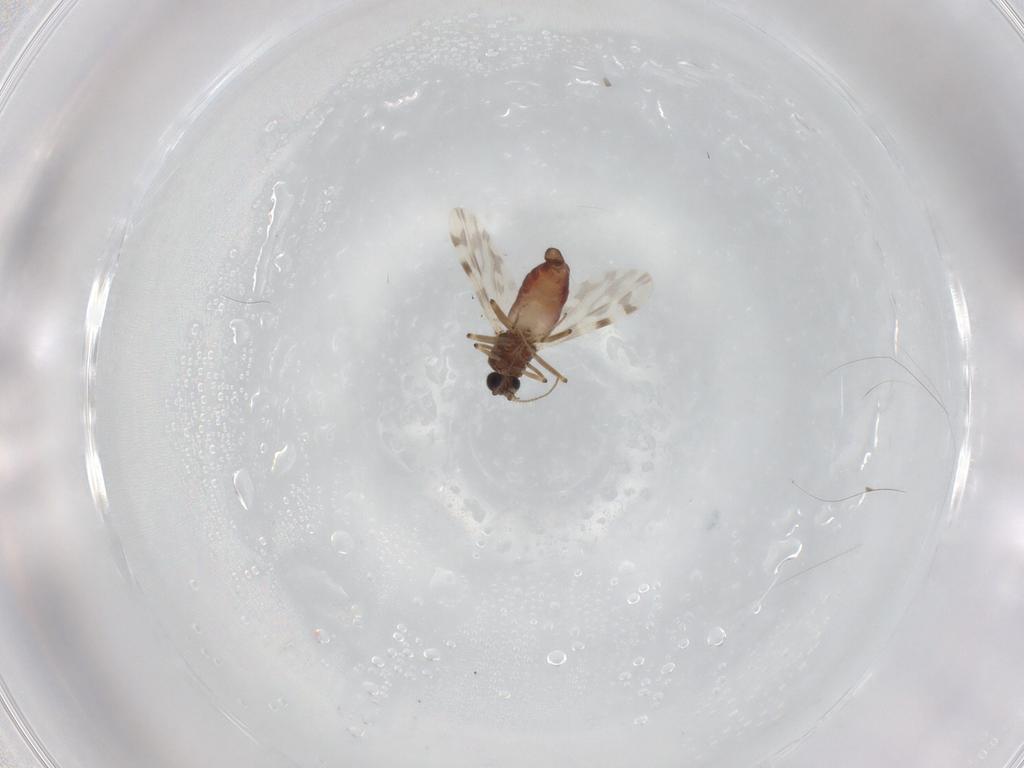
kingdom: Animalia
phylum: Arthropoda
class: Insecta
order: Diptera
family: Ceratopogonidae
